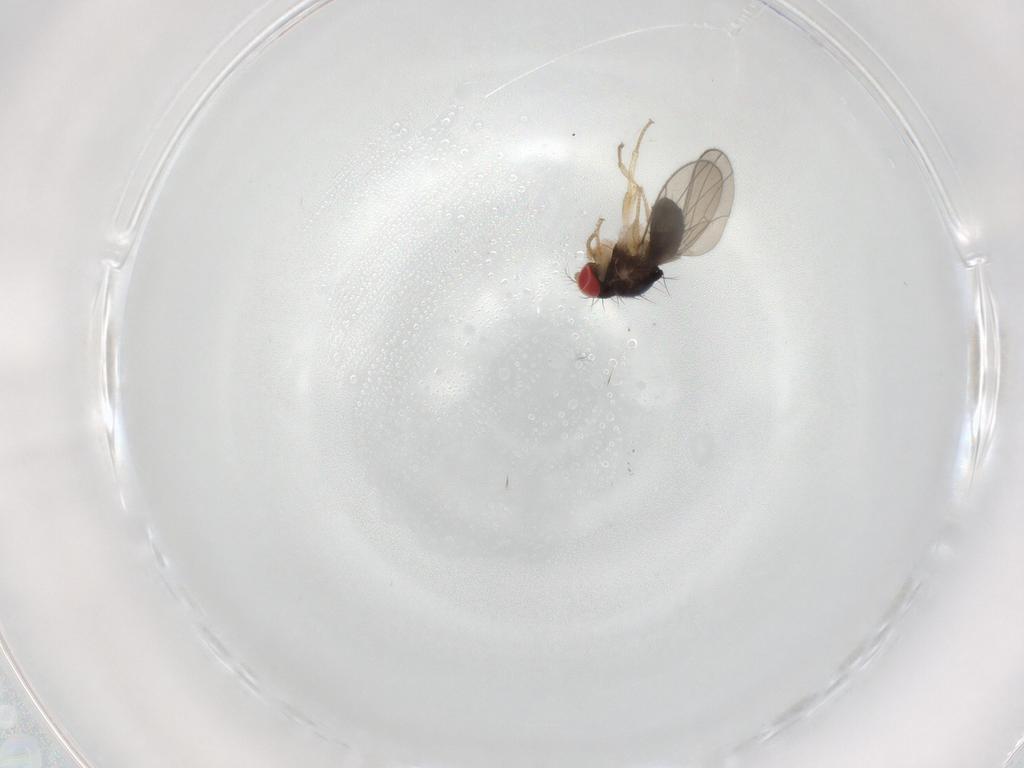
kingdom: Animalia
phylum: Arthropoda
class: Insecta
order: Diptera
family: Drosophilidae
